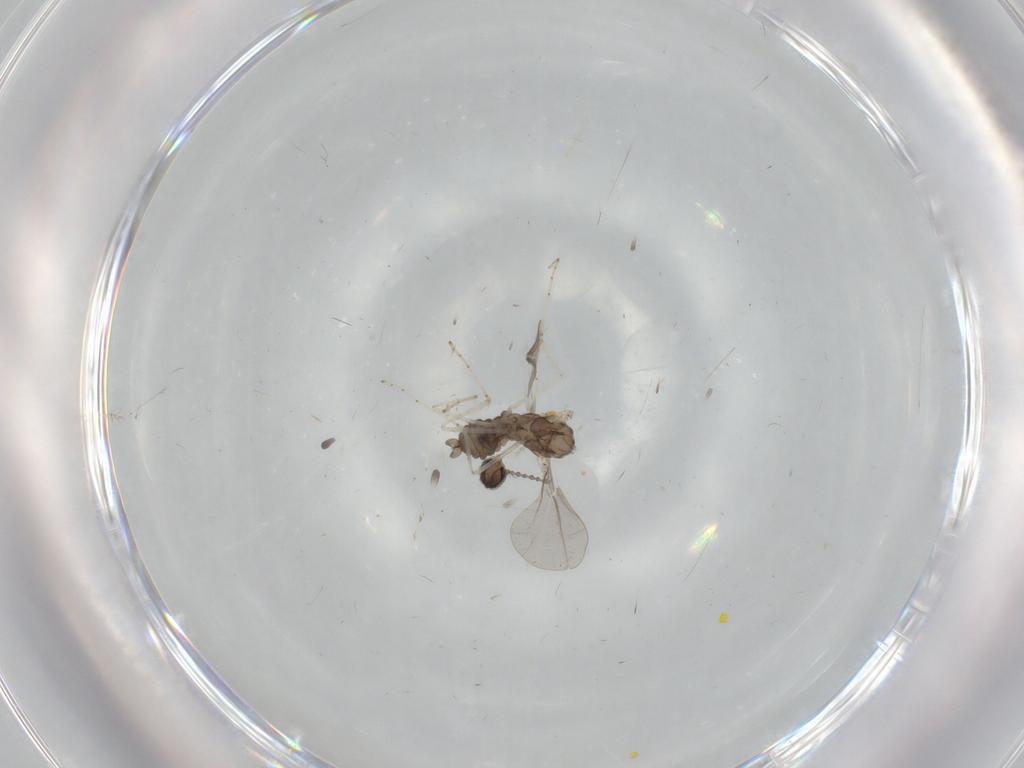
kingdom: Animalia
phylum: Arthropoda
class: Insecta
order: Diptera
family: Cecidomyiidae
